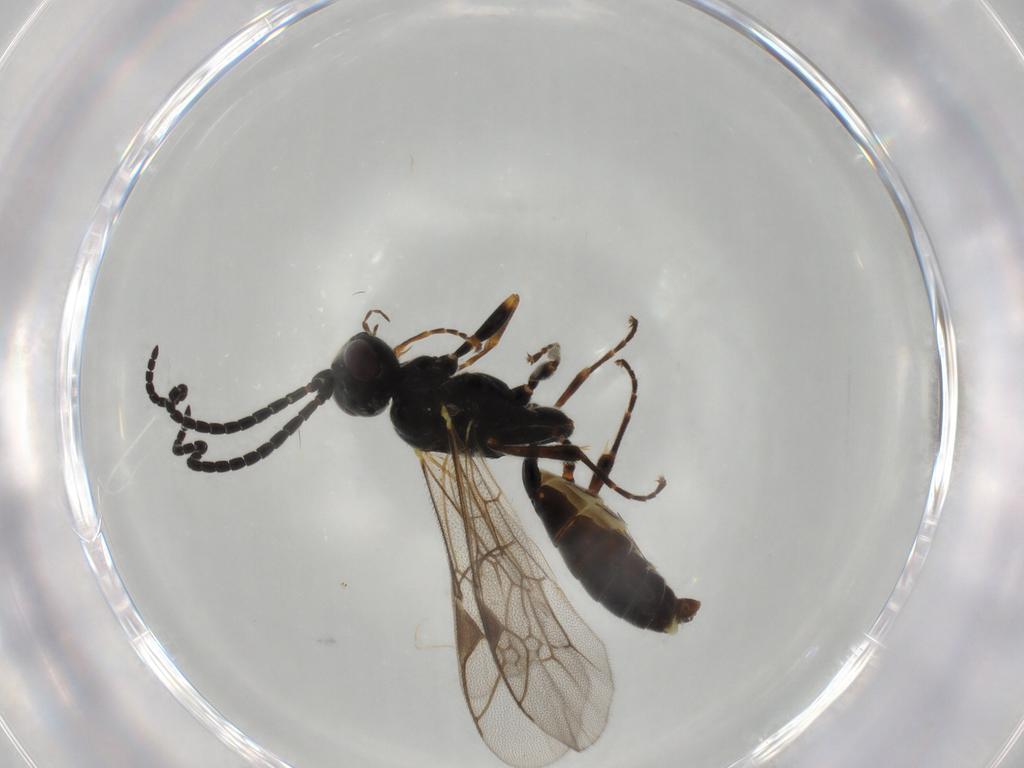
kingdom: Animalia
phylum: Arthropoda
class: Insecta
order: Hymenoptera
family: Ichneumonidae
